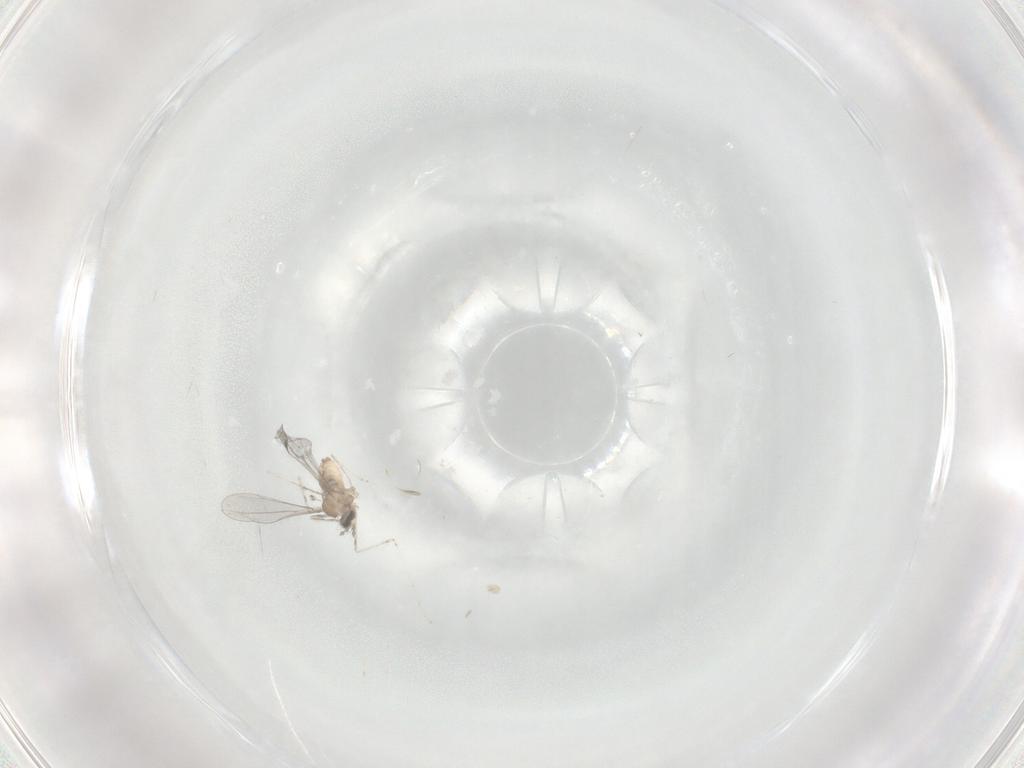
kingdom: Animalia
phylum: Arthropoda
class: Insecta
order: Diptera
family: Cecidomyiidae
